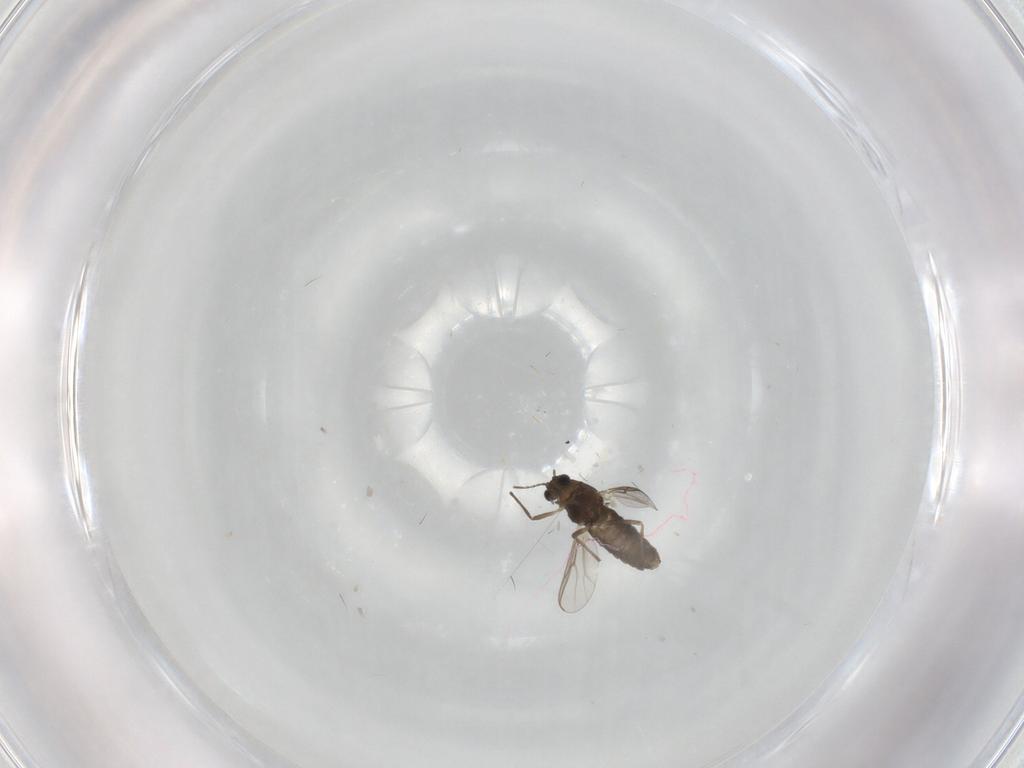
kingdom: Animalia
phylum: Arthropoda
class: Insecta
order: Diptera
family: Chironomidae
